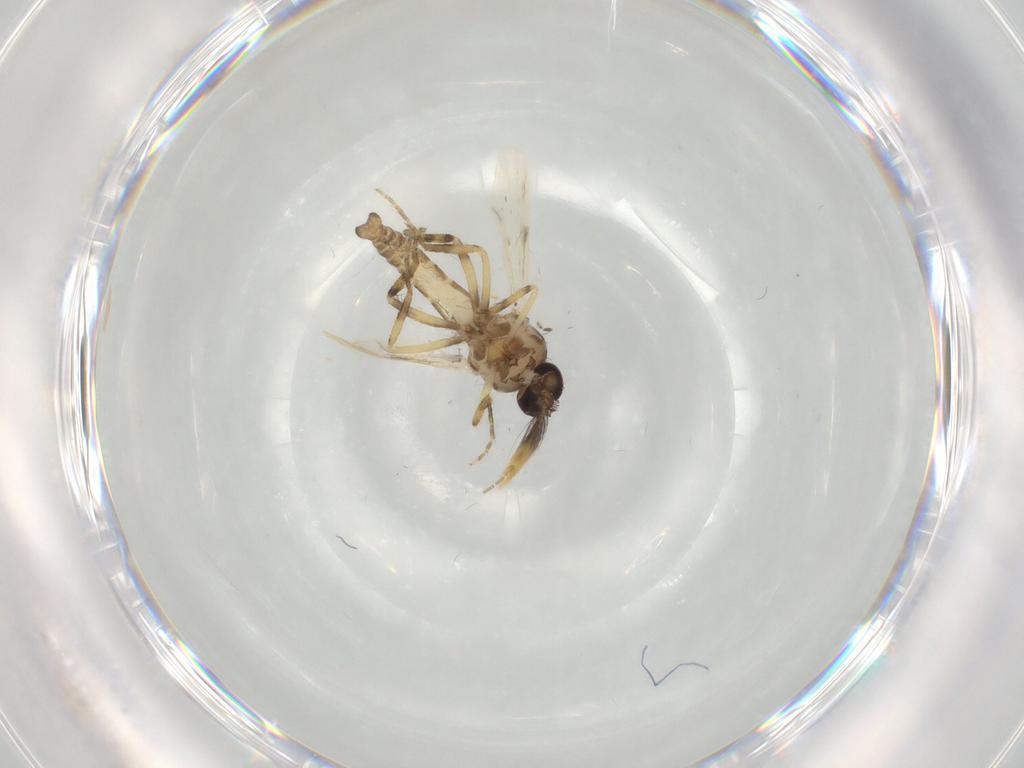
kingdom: Animalia
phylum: Arthropoda
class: Insecta
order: Diptera
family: Ceratopogonidae
